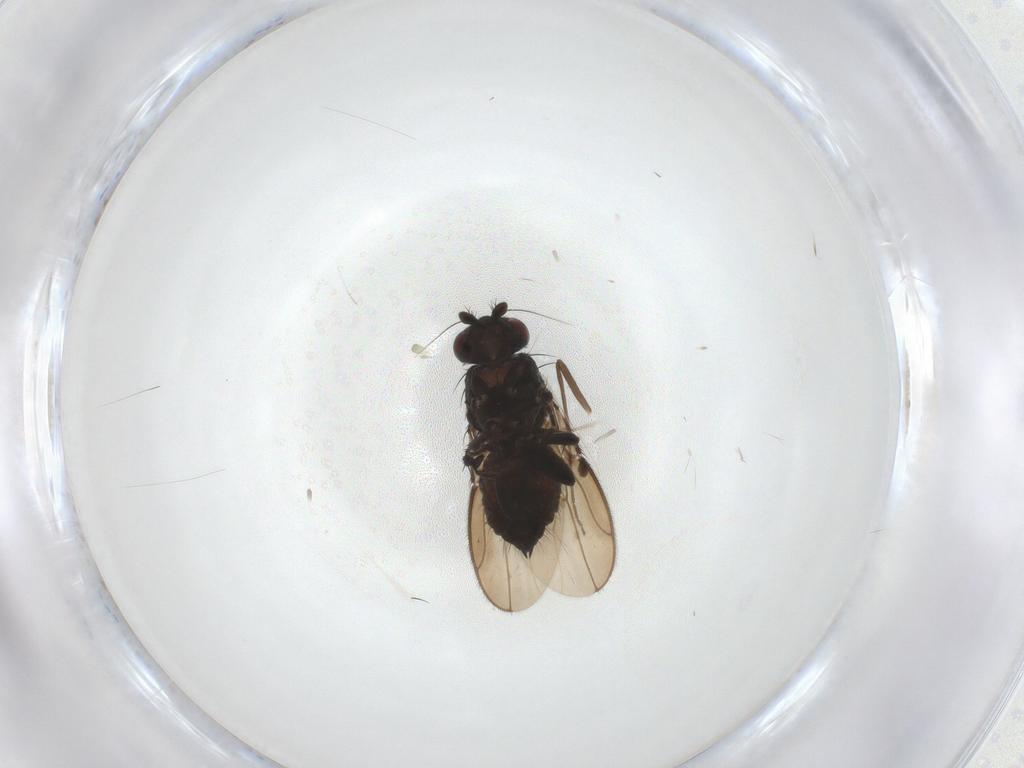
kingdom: Animalia
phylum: Arthropoda
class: Insecta
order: Diptera
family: Sphaeroceridae
